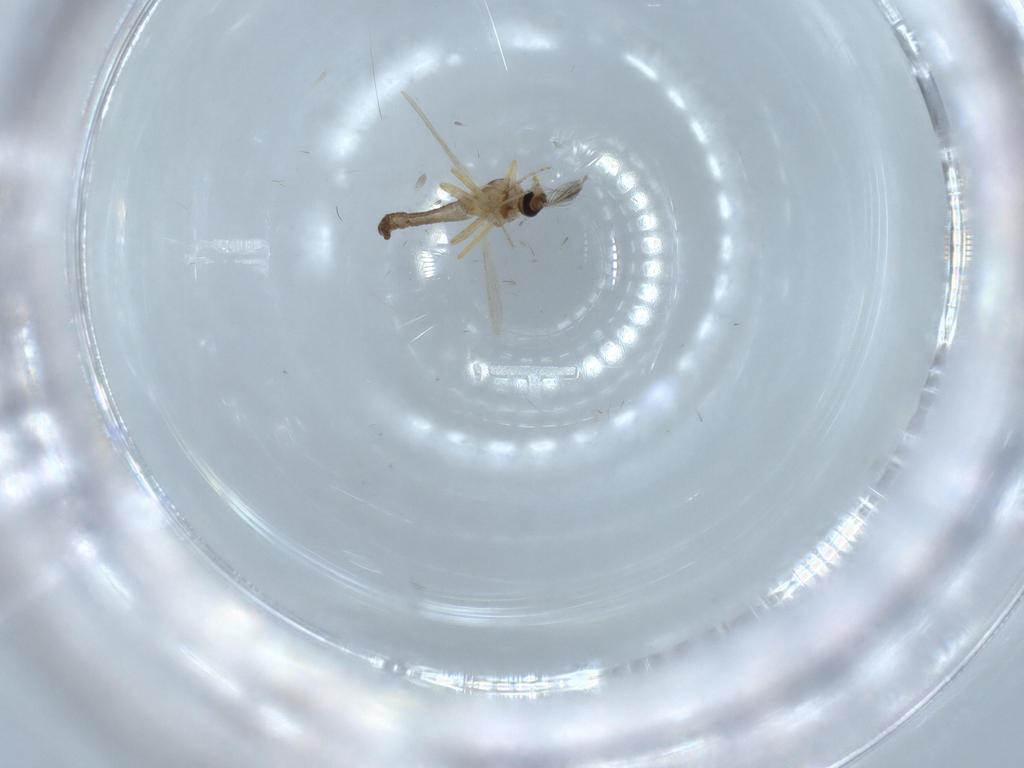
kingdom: Animalia
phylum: Arthropoda
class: Insecta
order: Diptera
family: Ceratopogonidae
